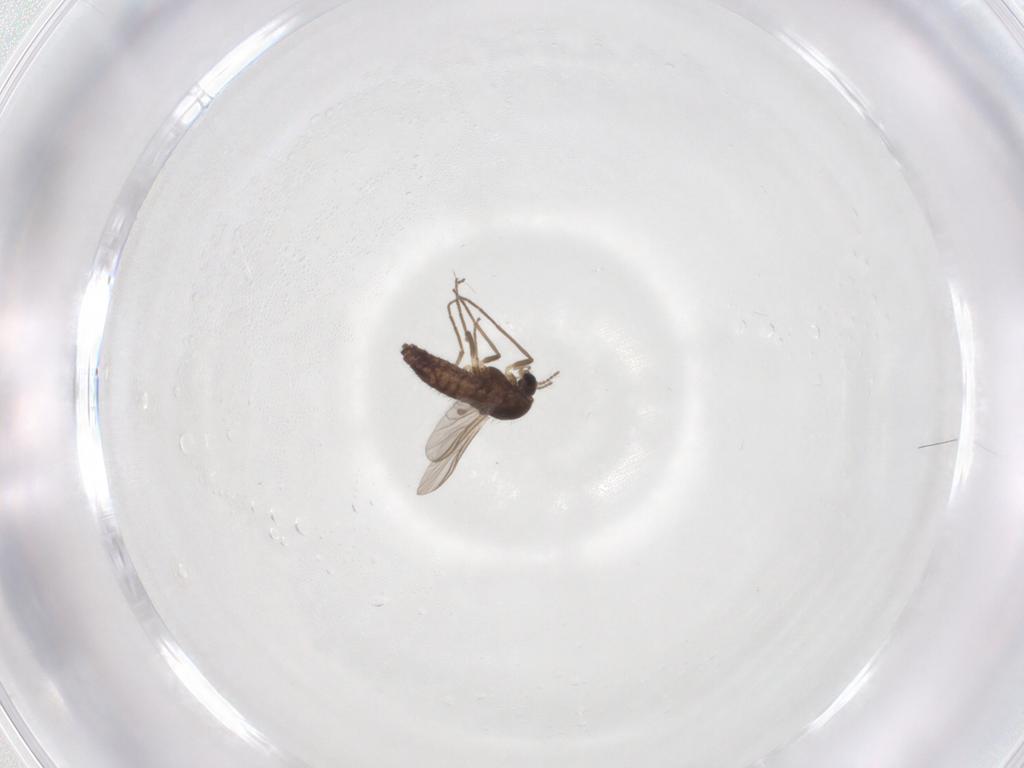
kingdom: Animalia
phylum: Arthropoda
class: Insecta
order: Diptera
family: Chironomidae
